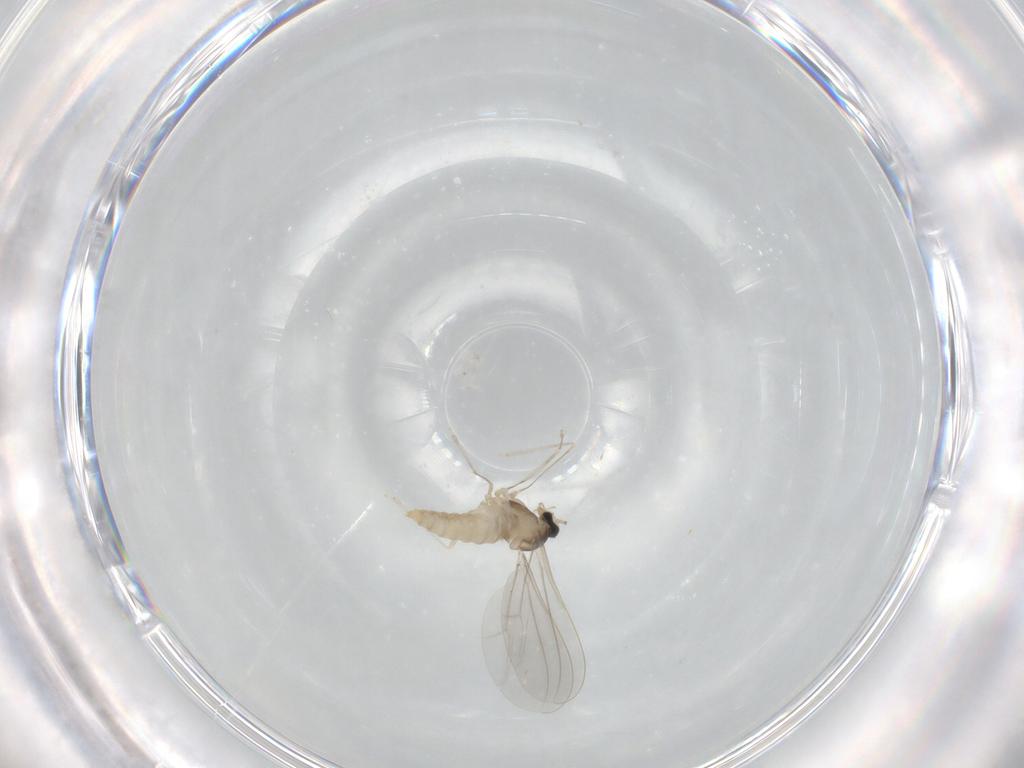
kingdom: Animalia
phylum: Arthropoda
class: Insecta
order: Diptera
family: Cecidomyiidae
